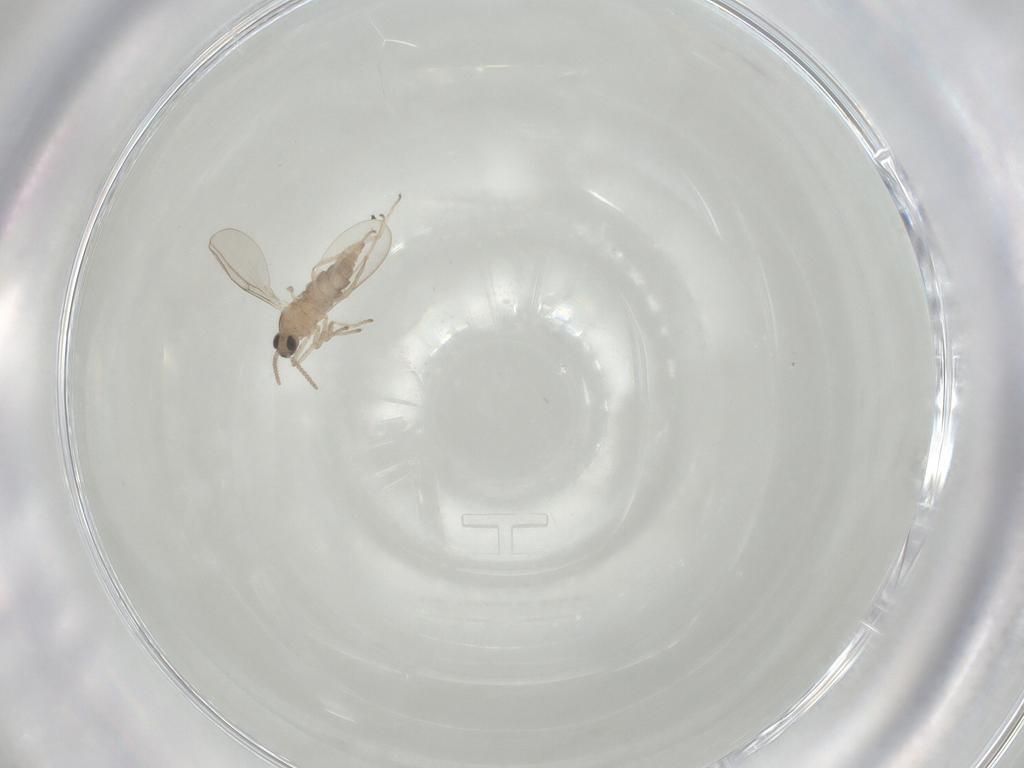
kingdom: Animalia
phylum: Arthropoda
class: Insecta
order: Diptera
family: Cecidomyiidae
